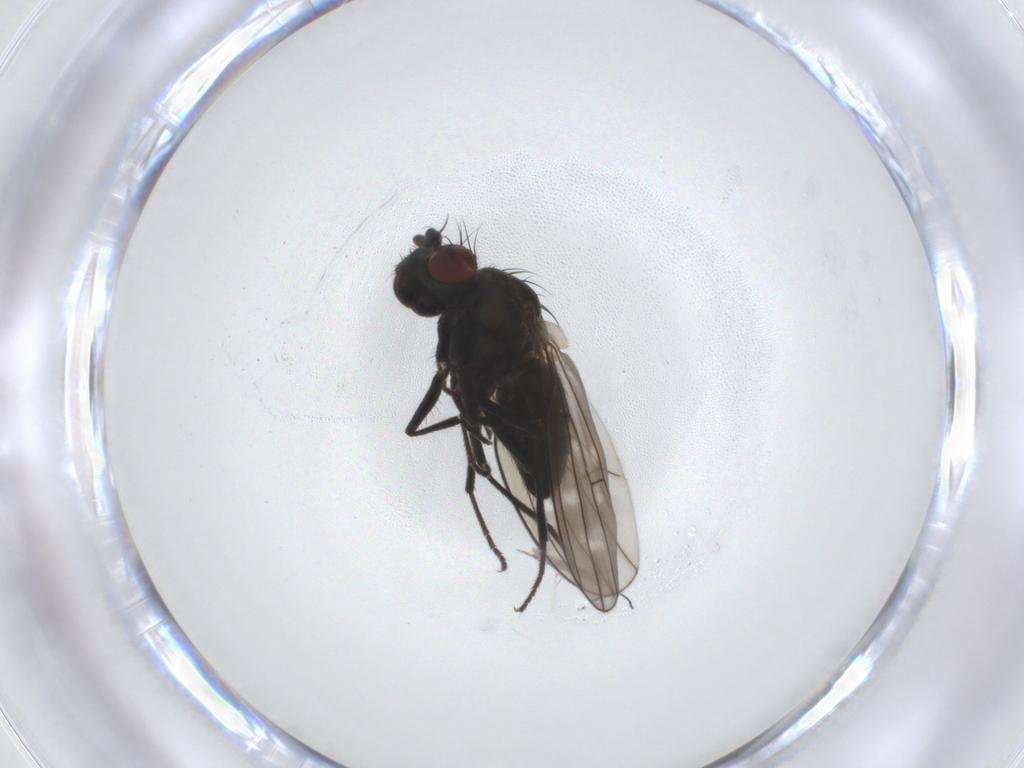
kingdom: Animalia
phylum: Arthropoda
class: Insecta
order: Diptera
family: Ephydridae
